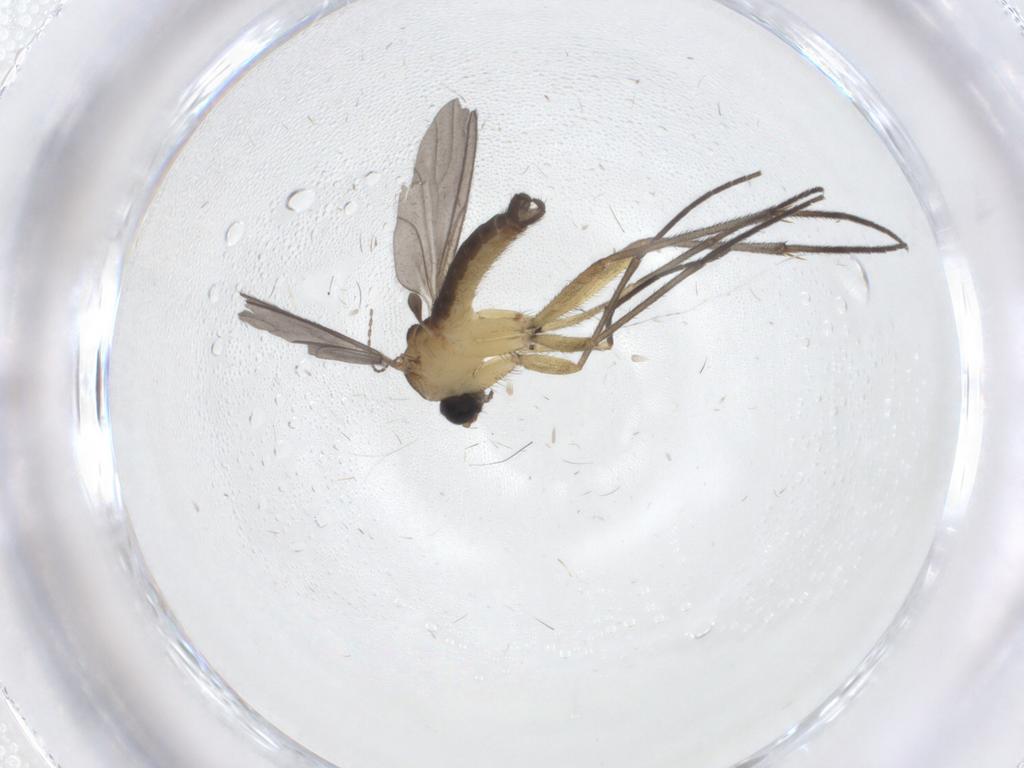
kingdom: Animalia
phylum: Arthropoda
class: Insecta
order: Diptera
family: Sciaridae
